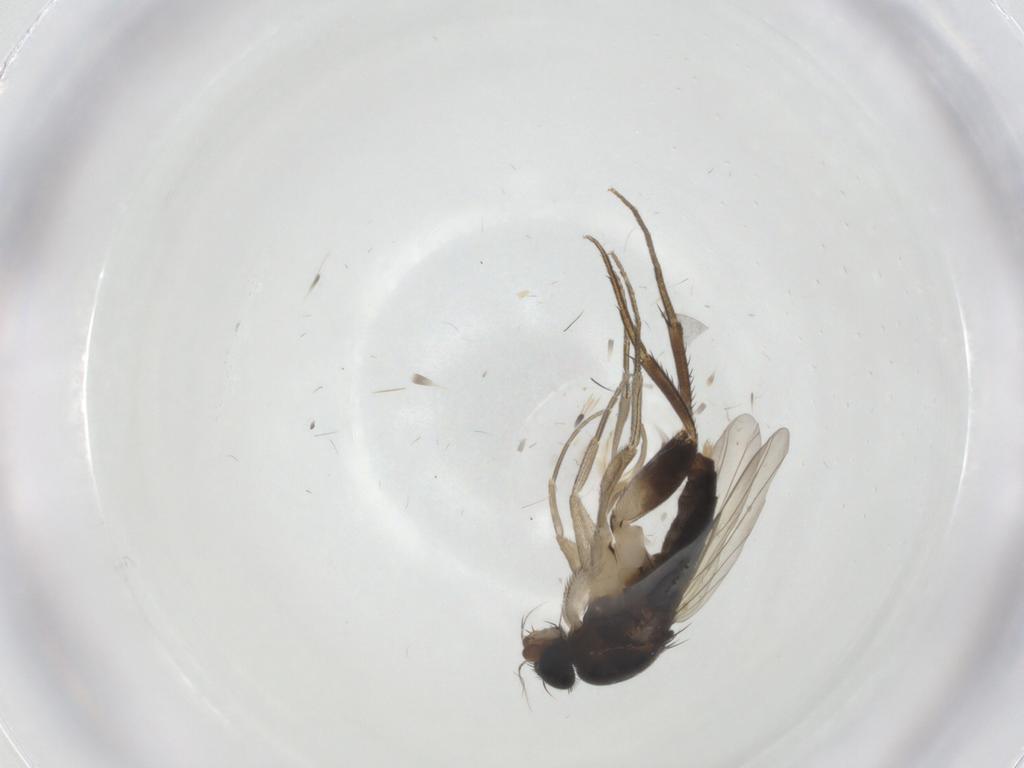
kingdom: Animalia
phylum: Arthropoda
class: Insecta
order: Diptera
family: Phoridae
